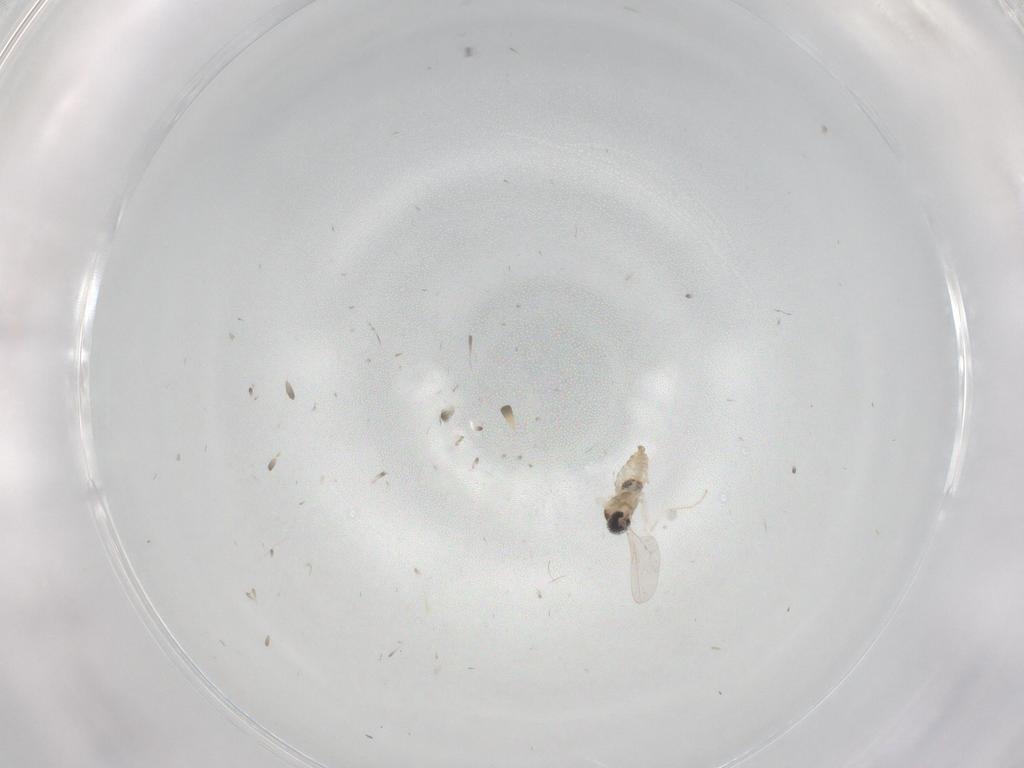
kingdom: Animalia
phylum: Arthropoda
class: Insecta
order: Diptera
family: Cecidomyiidae
